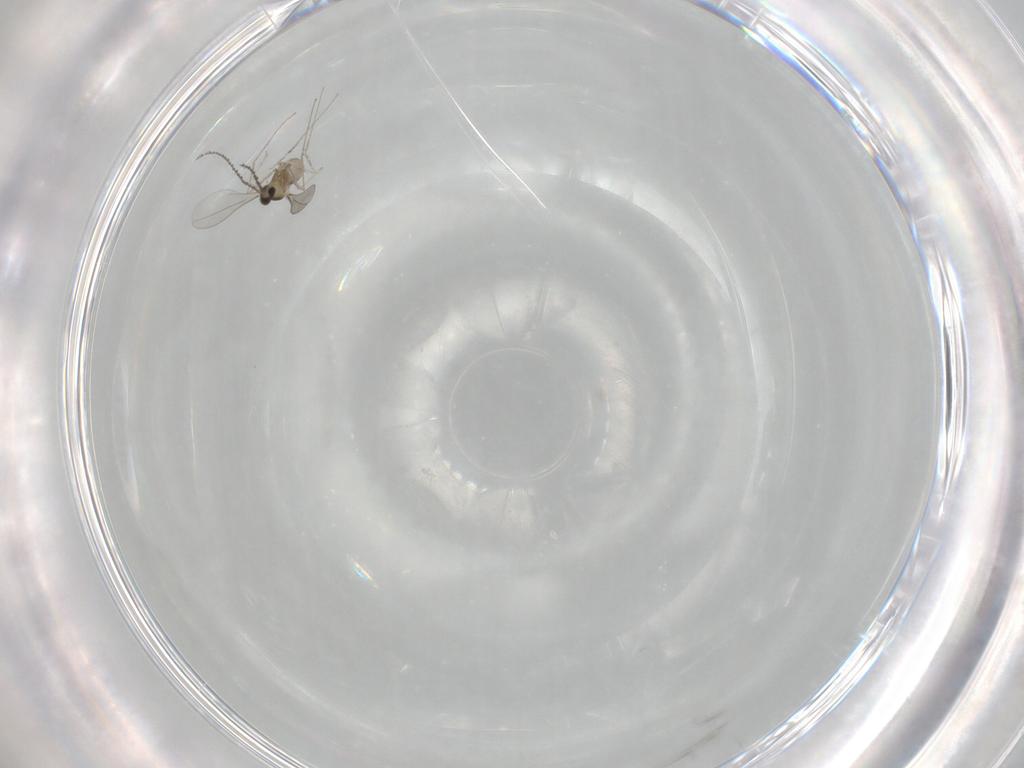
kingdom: Animalia
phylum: Arthropoda
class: Insecta
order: Diptera
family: Cecidomyiidae
